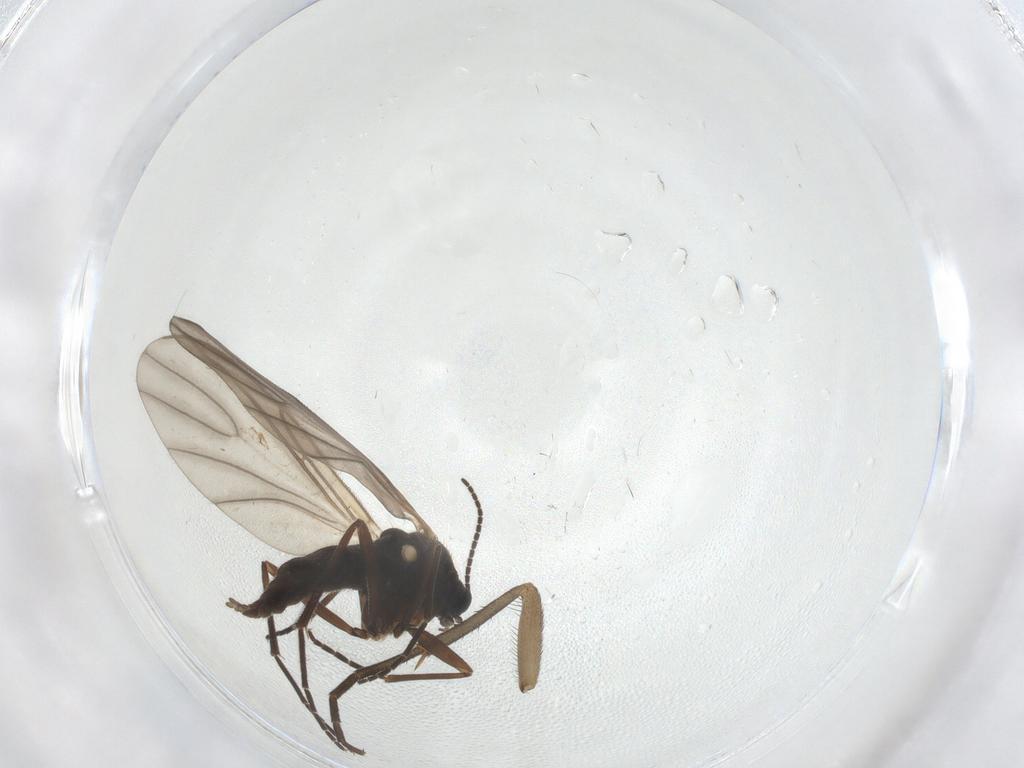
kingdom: Animalia
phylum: Arthropoda
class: Insecta
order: Diptera
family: Sciaridae
